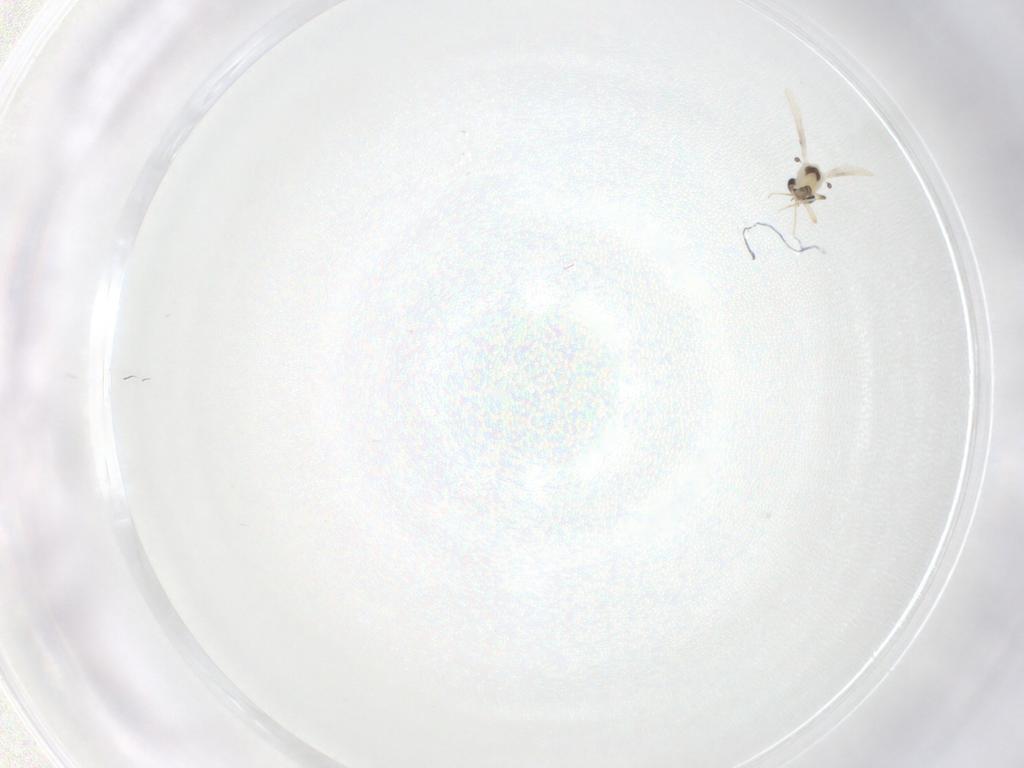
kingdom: Animalia
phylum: Arthropoda
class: Insecta
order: Diptera
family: Chironomidae
